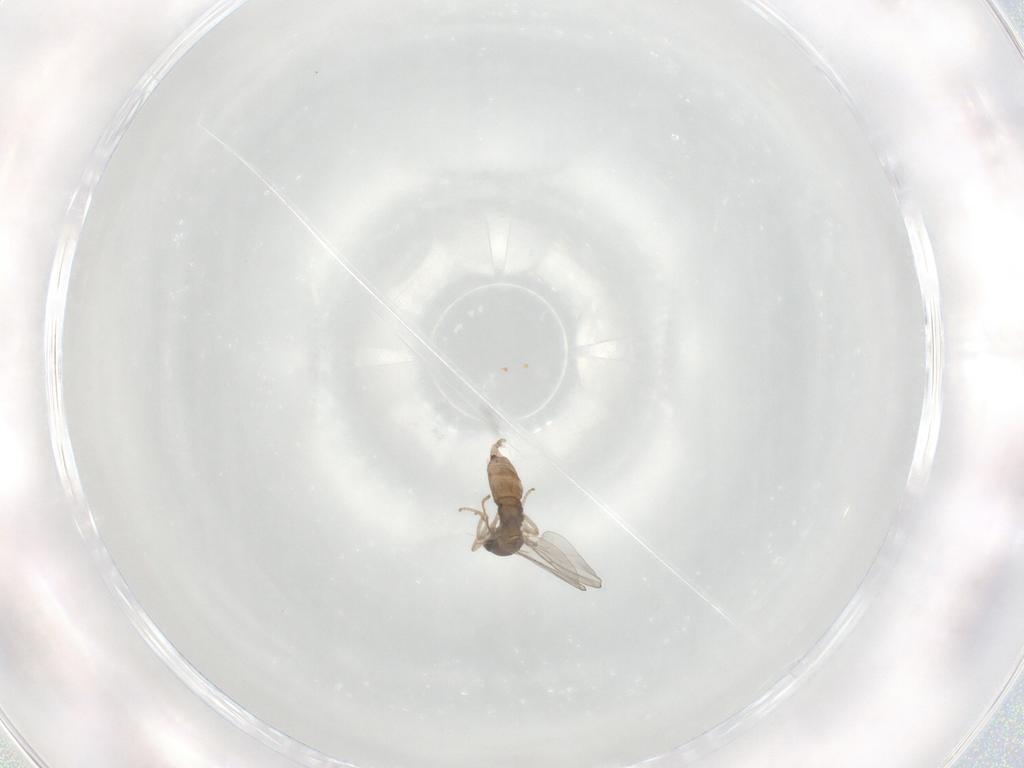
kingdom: Animalia
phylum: Arthropoda
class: Insecta
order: Diptera
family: Cecidomyiidae
